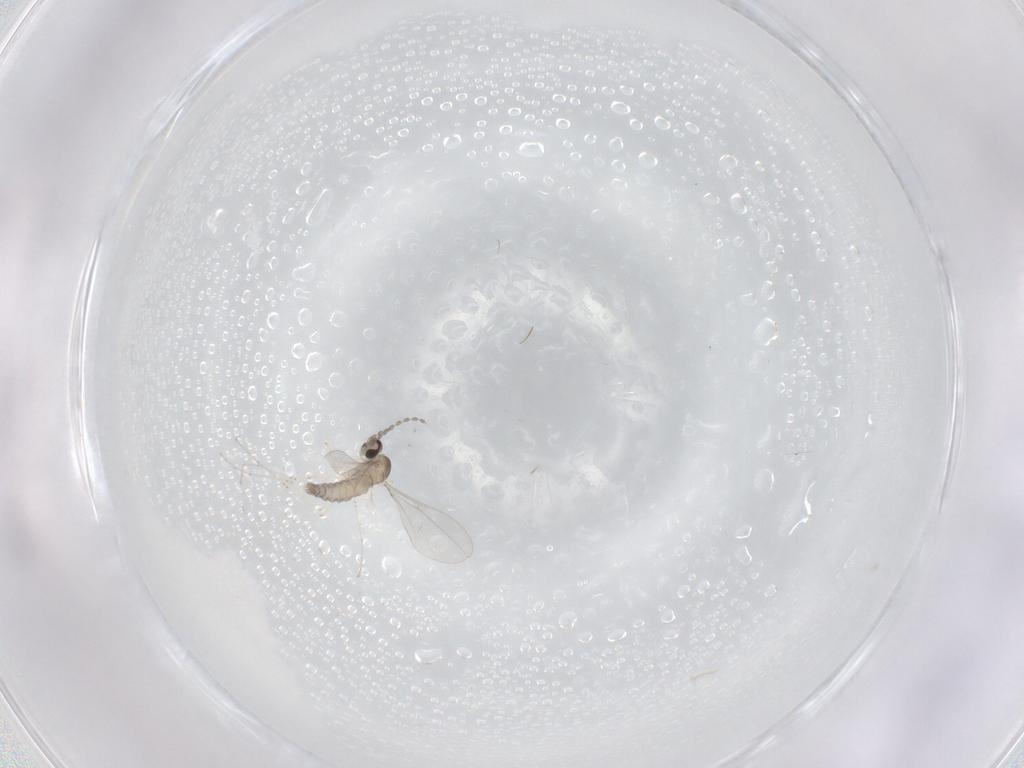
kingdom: Animalia
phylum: Arthropoda
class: Insecta
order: Diptera
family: Cecidomyiidae
